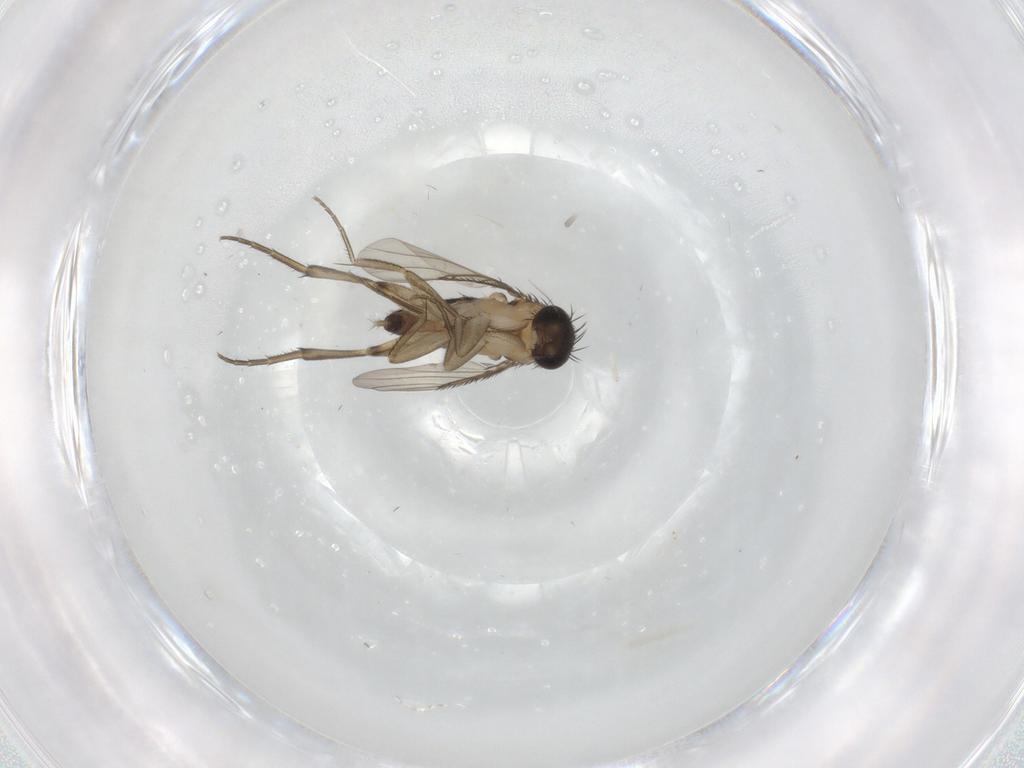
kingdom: Animalia
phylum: Arthropoda
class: Insecta
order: Diptera
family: Phoridae
